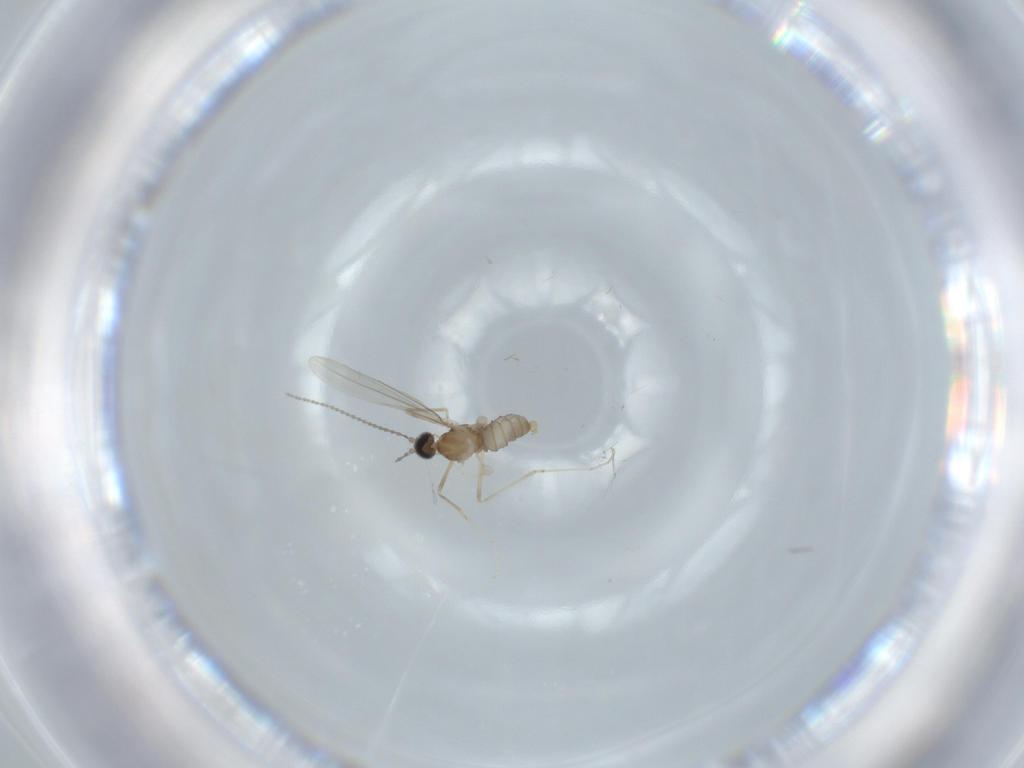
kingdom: Animalia
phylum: Arthropoda
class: Insecta
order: Diptera
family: Cecidomyiidae
